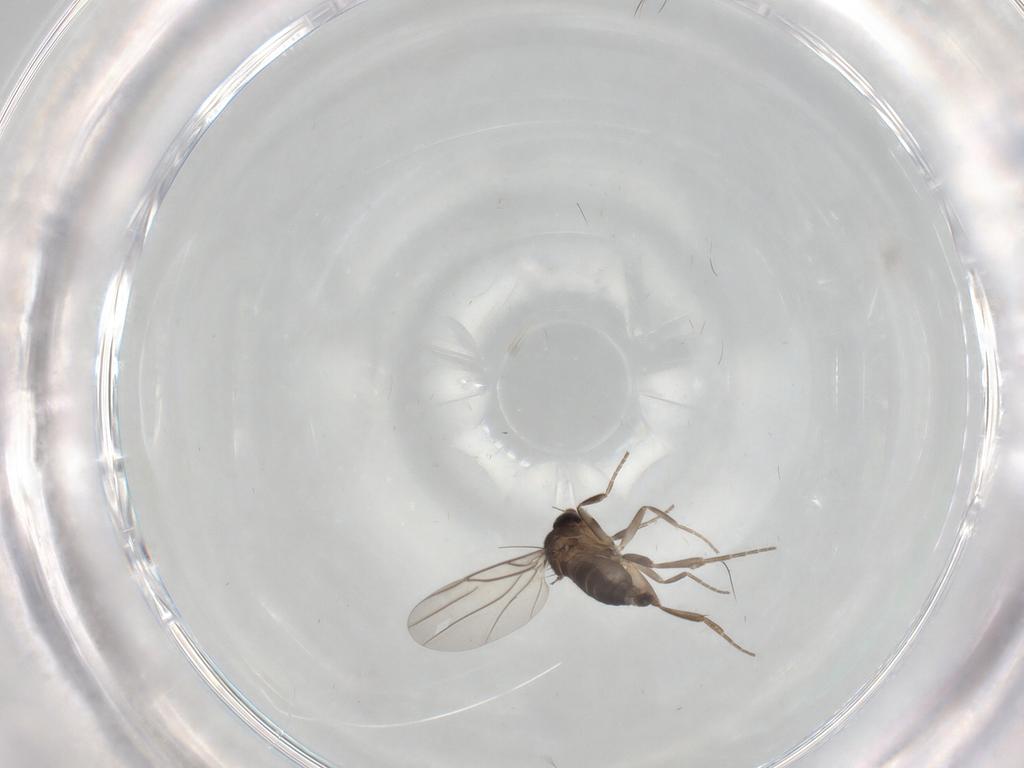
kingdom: Animalia
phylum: Arthropoda
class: Insecta
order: Diptera
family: Phoridae
